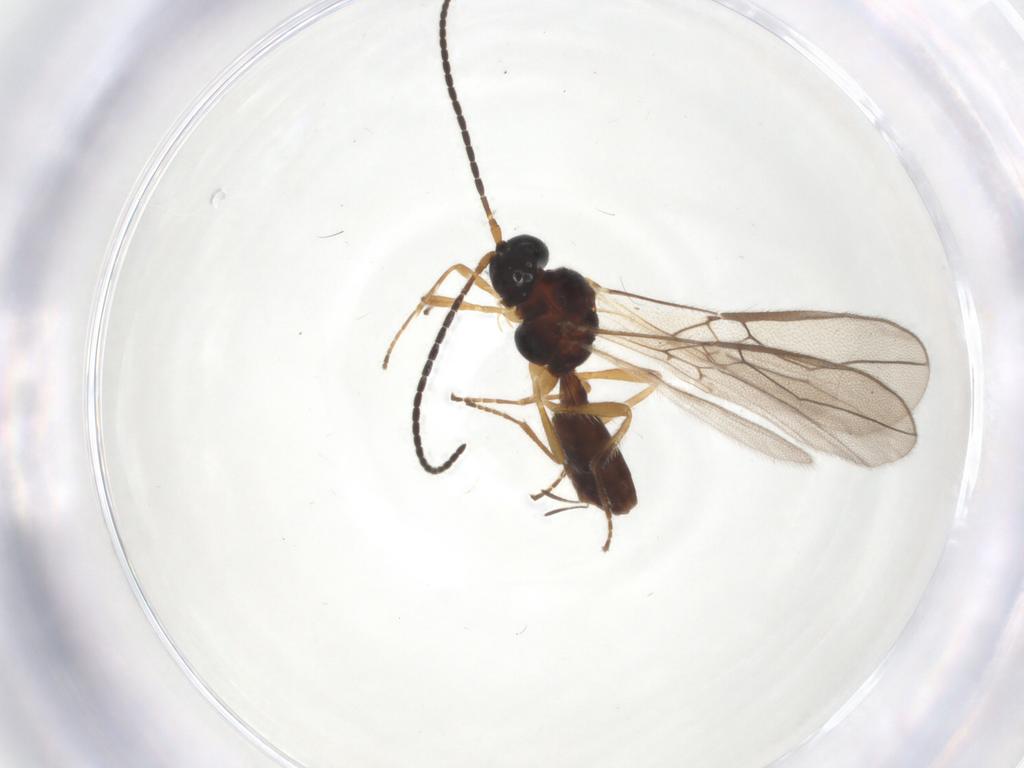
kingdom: Animalia
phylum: Arthropoda
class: Insecta
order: Hymenoptera
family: Braconidae
